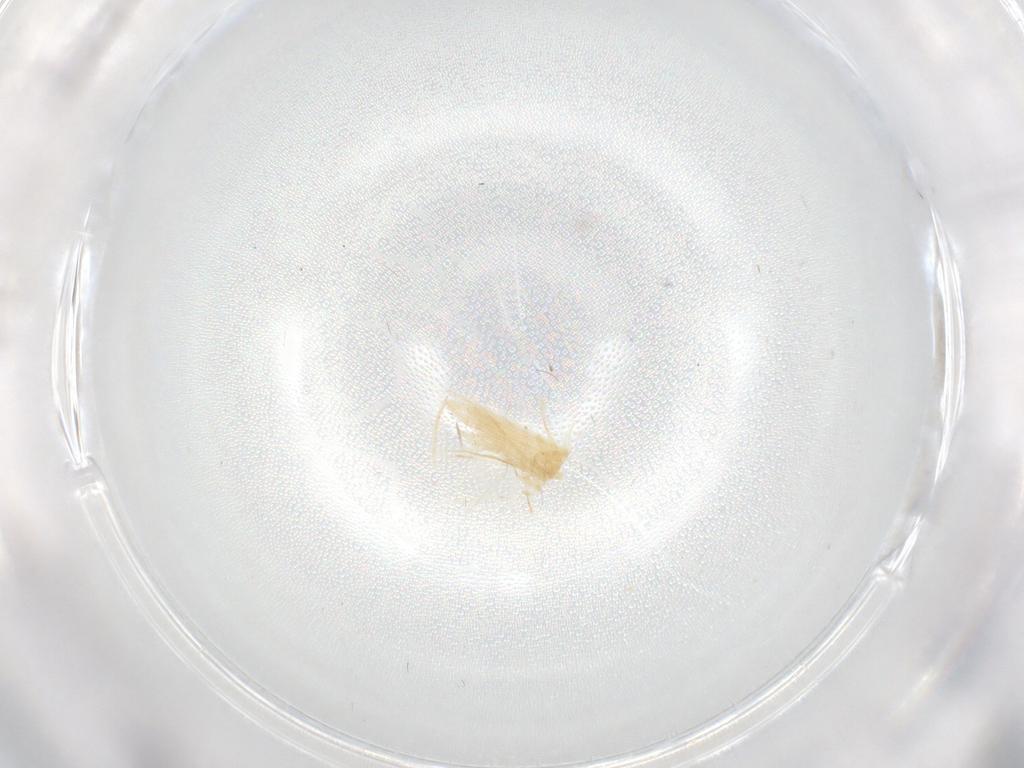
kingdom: Animalia
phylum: Arthropoda
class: Insecta
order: Diptera
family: Cecidomyiidae
